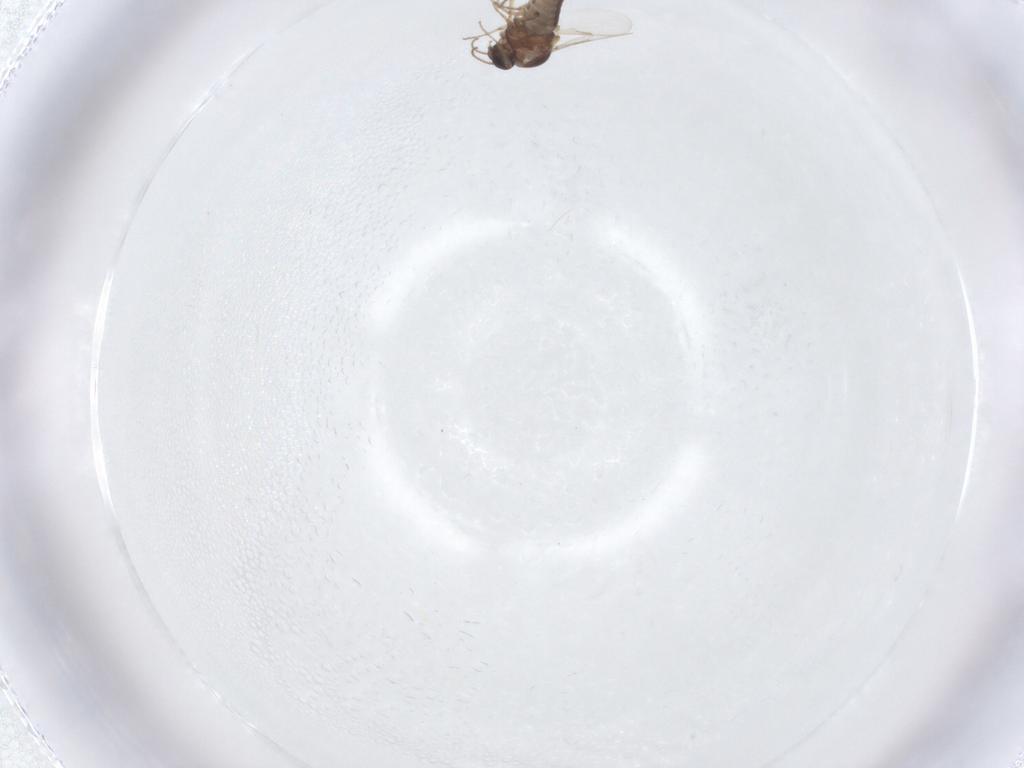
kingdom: Animalia
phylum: Arthropoda
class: Insecta
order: Diptera
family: Ceratopogonidae
